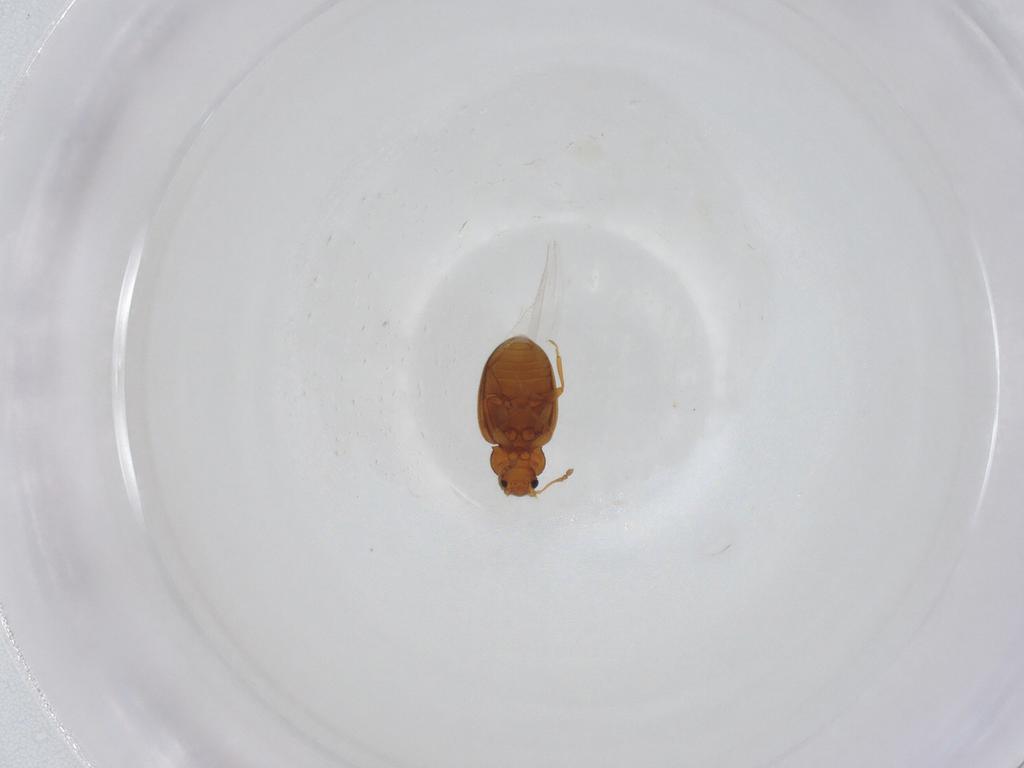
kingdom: Animalia
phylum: Arthropoda
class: Insecta
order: Coleoptera
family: Latridiidae
